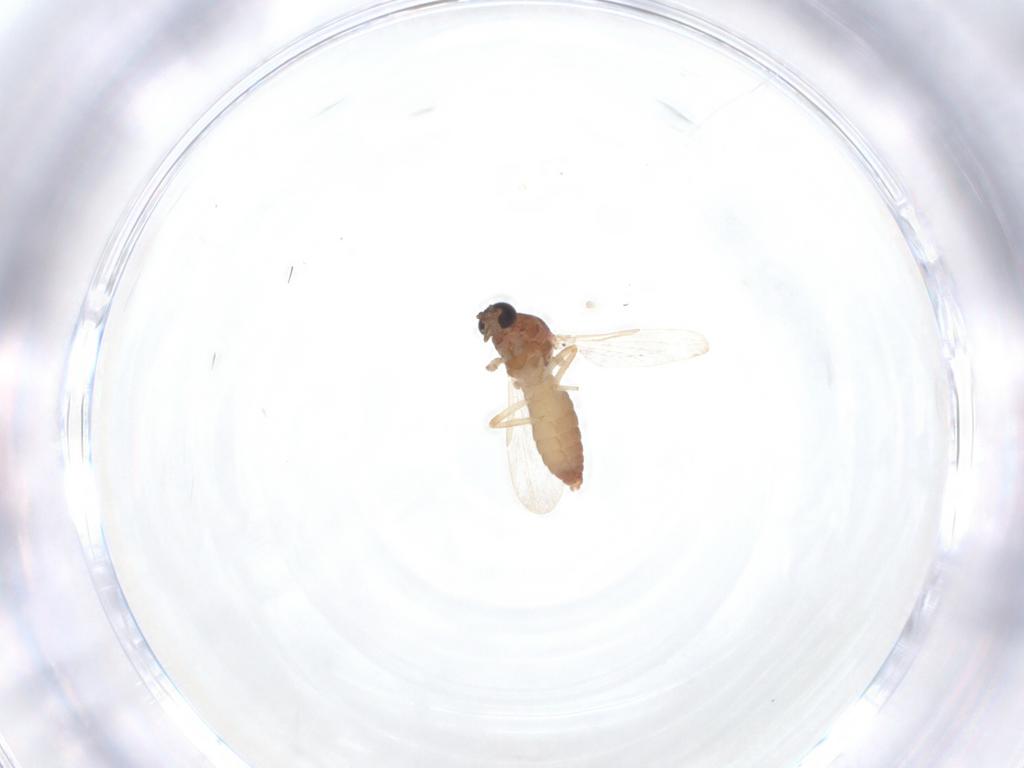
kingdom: Animalia
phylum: Arthropoda
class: Insecta
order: Diptera
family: Ceratopogonidae
